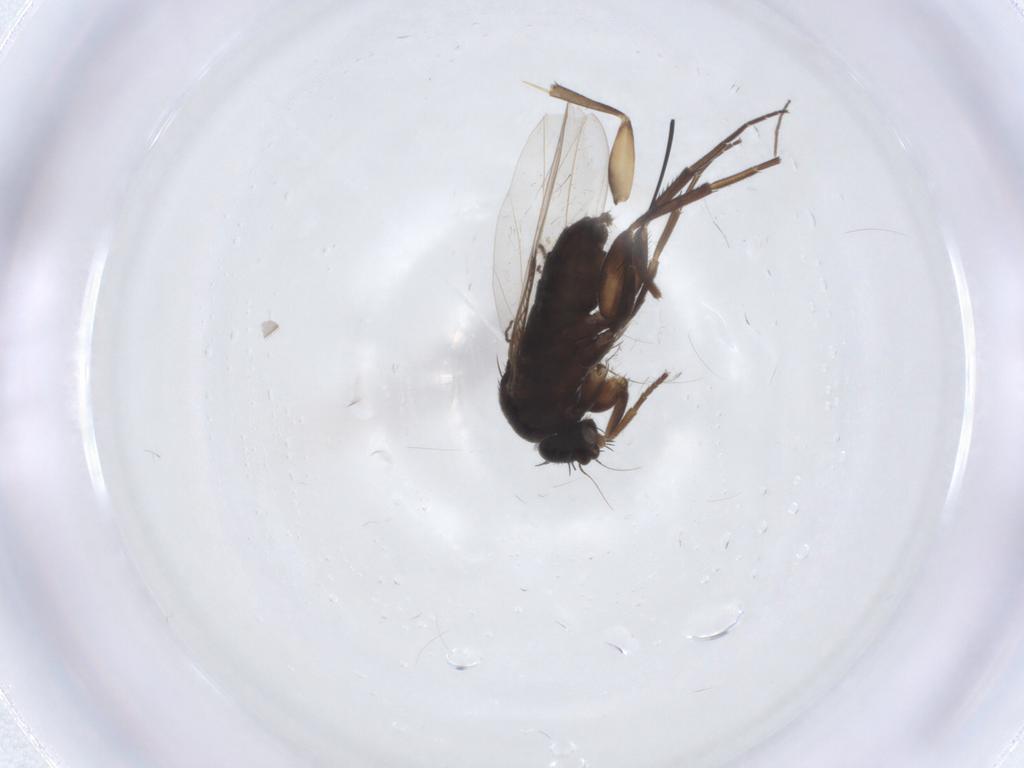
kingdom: Animalia
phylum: Arthropoda
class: Insecta
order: Diptera
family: Phoridae
